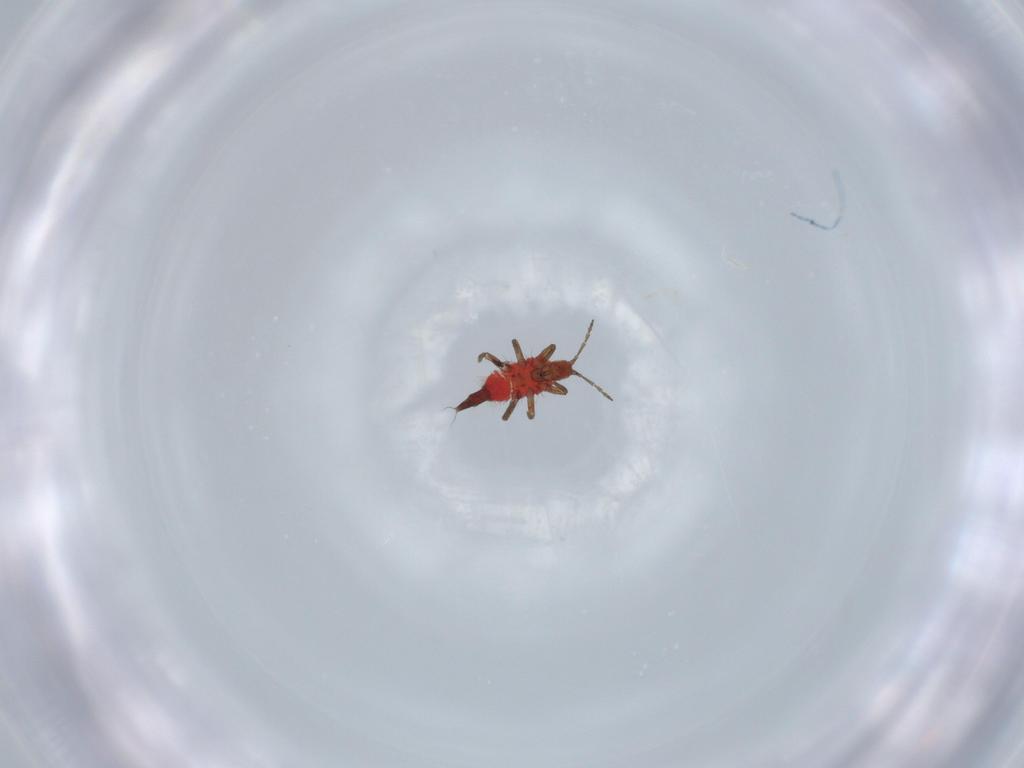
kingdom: Animalia
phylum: Arthropoda
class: Insecta
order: Thysanoptera
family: Phlaeothripidae
